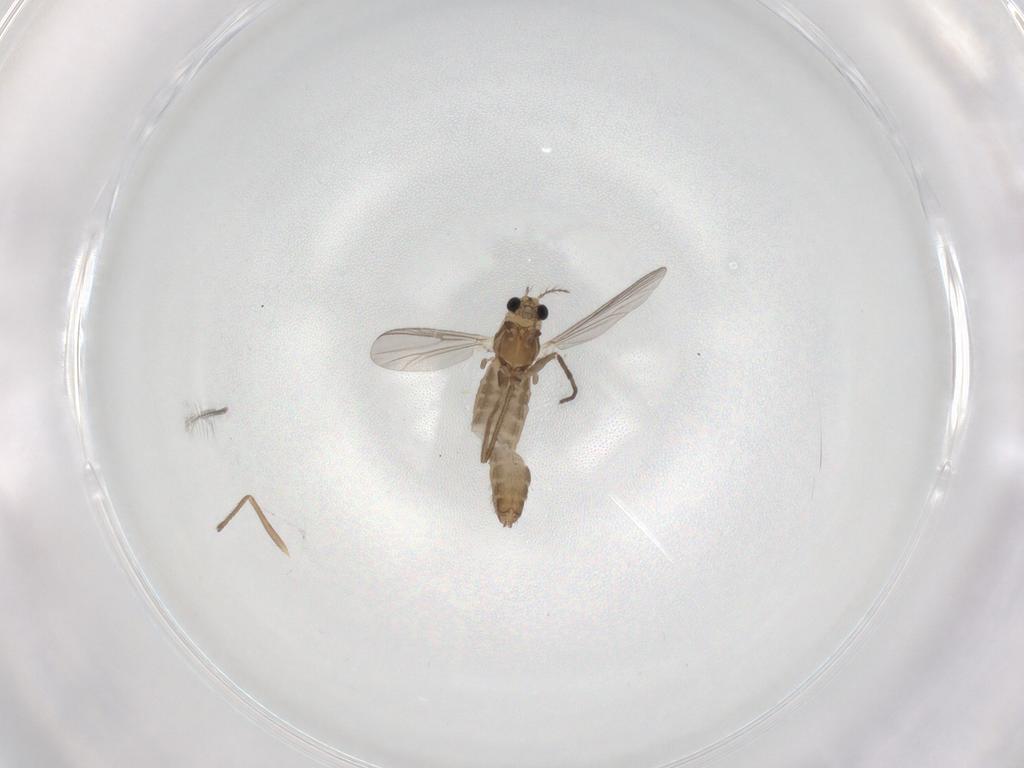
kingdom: Animalia
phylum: Arthropoda
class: Insecta
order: Diptera
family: Chironomidae
